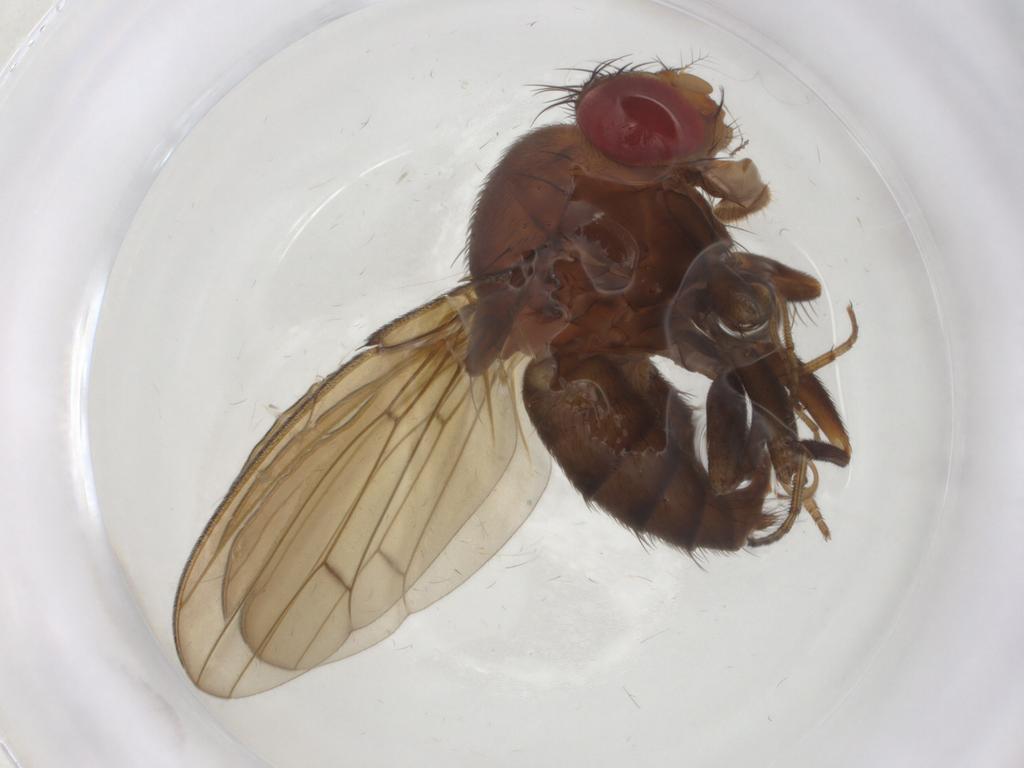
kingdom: Animalia
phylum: Arthropoda
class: Insecta
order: Diptera
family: Drosophilidae
